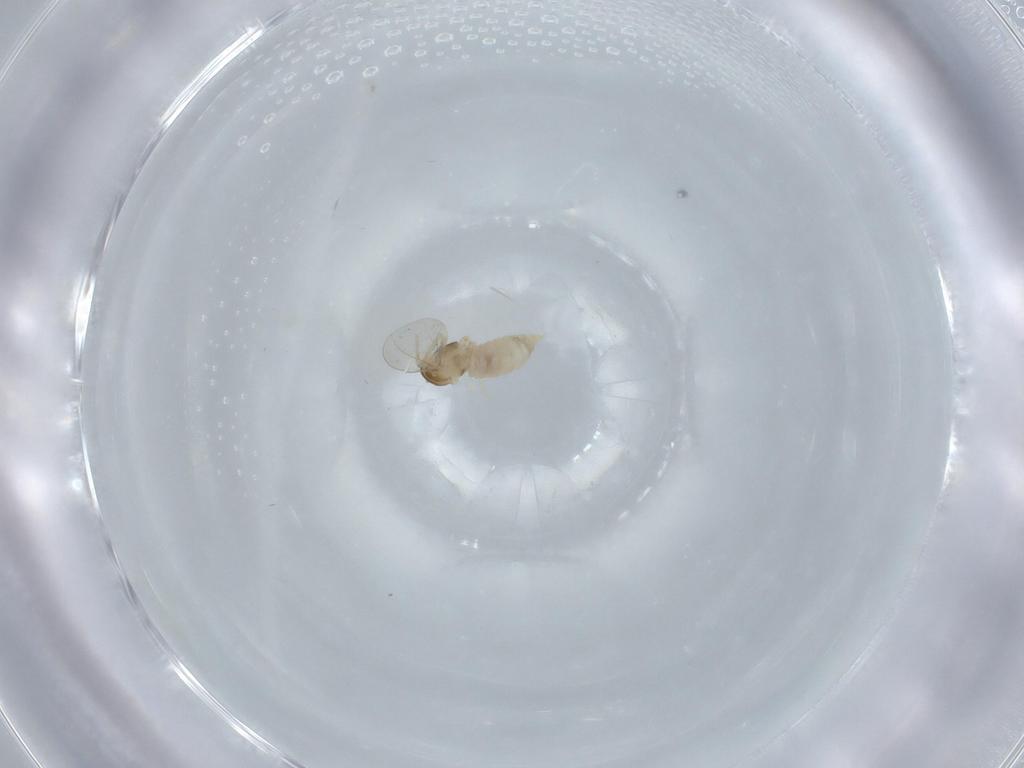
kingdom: Animalia
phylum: Arthropoda
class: Insecta
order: Diptera
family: Cecidomyiidae
